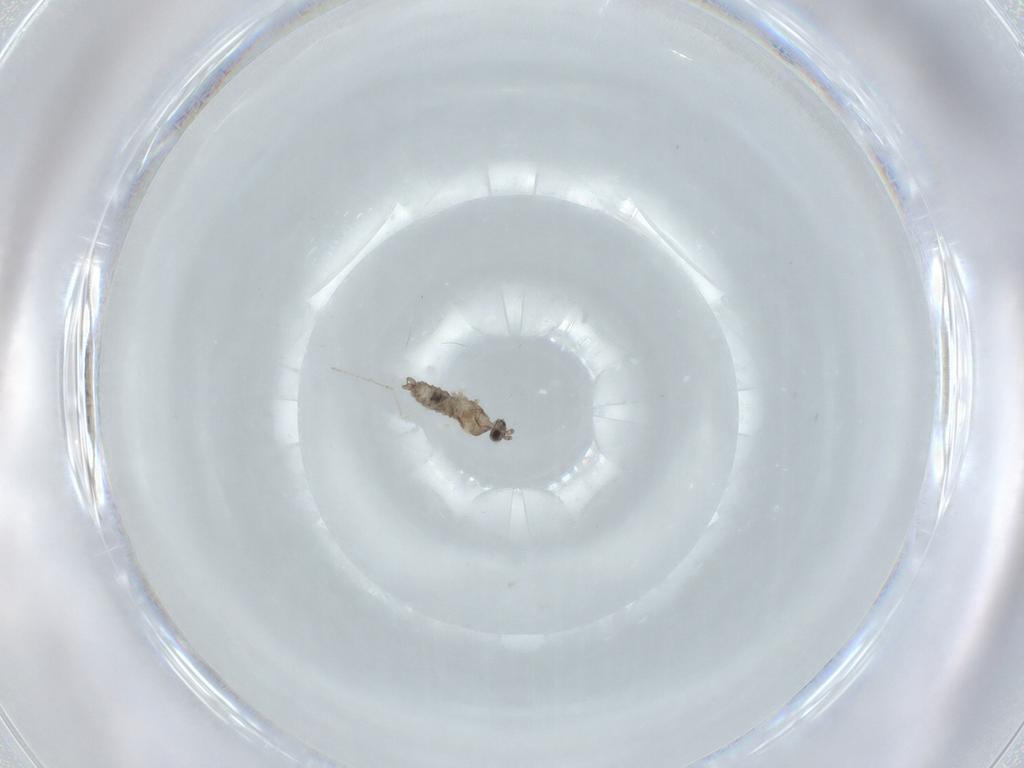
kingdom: Animalia
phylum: Arthropoda
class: Insecta
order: Diptera
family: Cecidomyiidae
